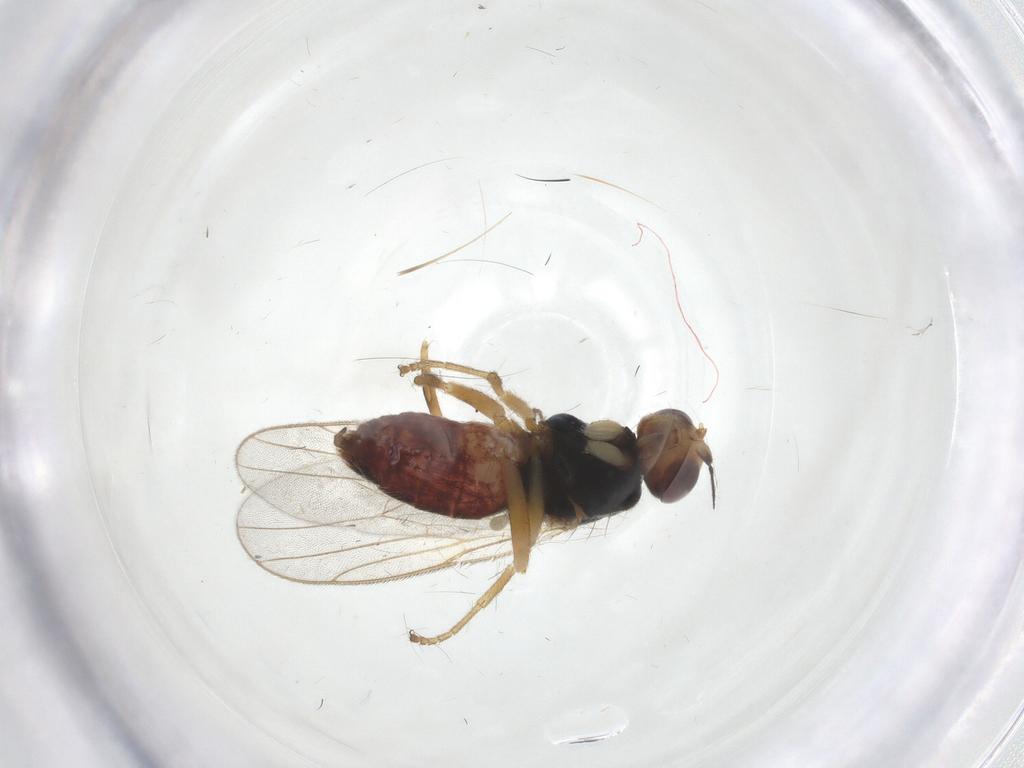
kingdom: Animalia
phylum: Arthropoda
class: Insecta
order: Diptera
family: Chloropidae
